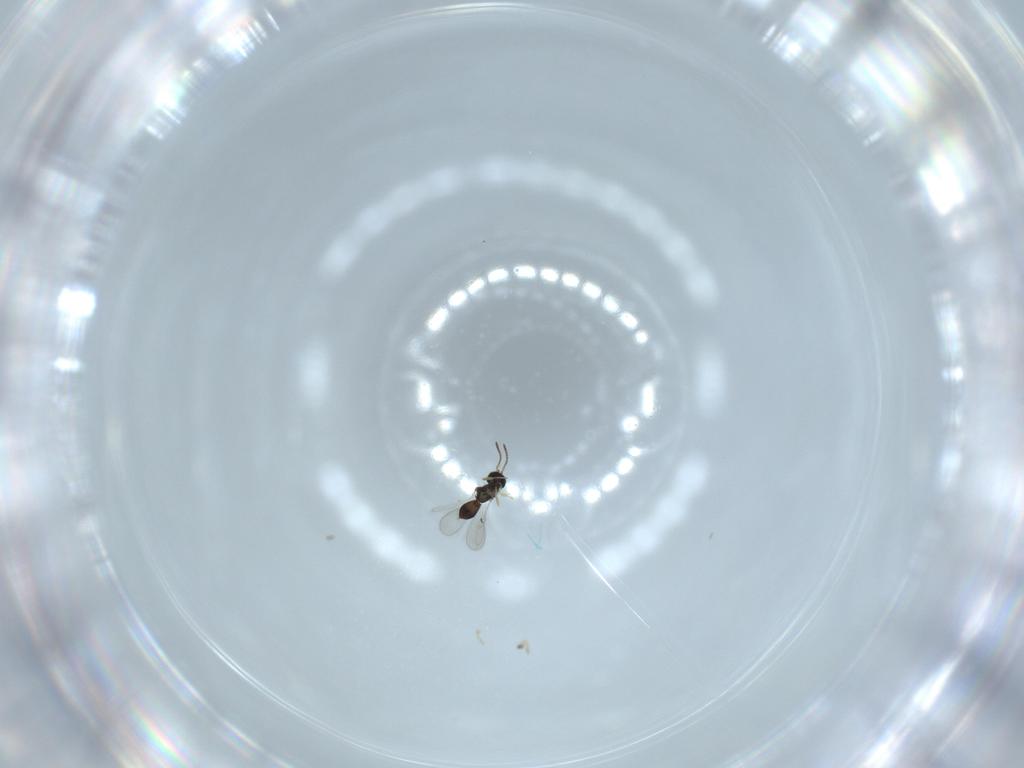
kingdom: Animalia
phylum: Arthropoda
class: Insecta
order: Hymenoptera
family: Scelionidae
